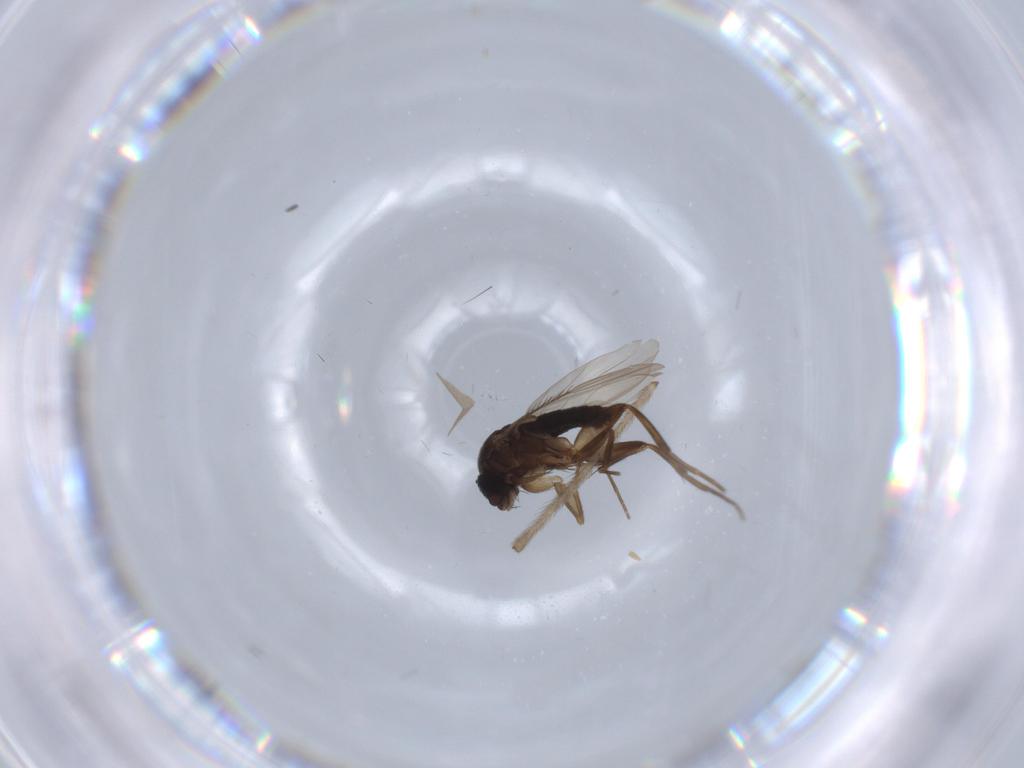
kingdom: Animalia
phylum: Arthropoda
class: Insecta
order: Diptera
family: Phoridae
